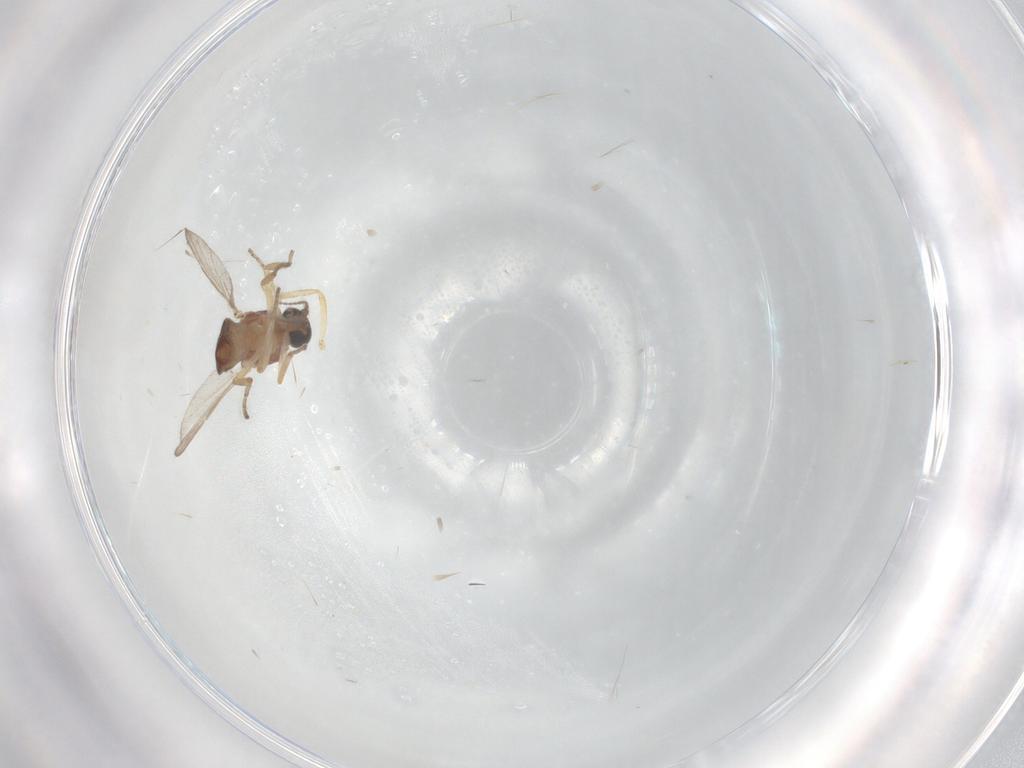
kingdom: Animalia
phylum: Arthropoda
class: Insecta
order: Diptera
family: Ceratopogonidae
